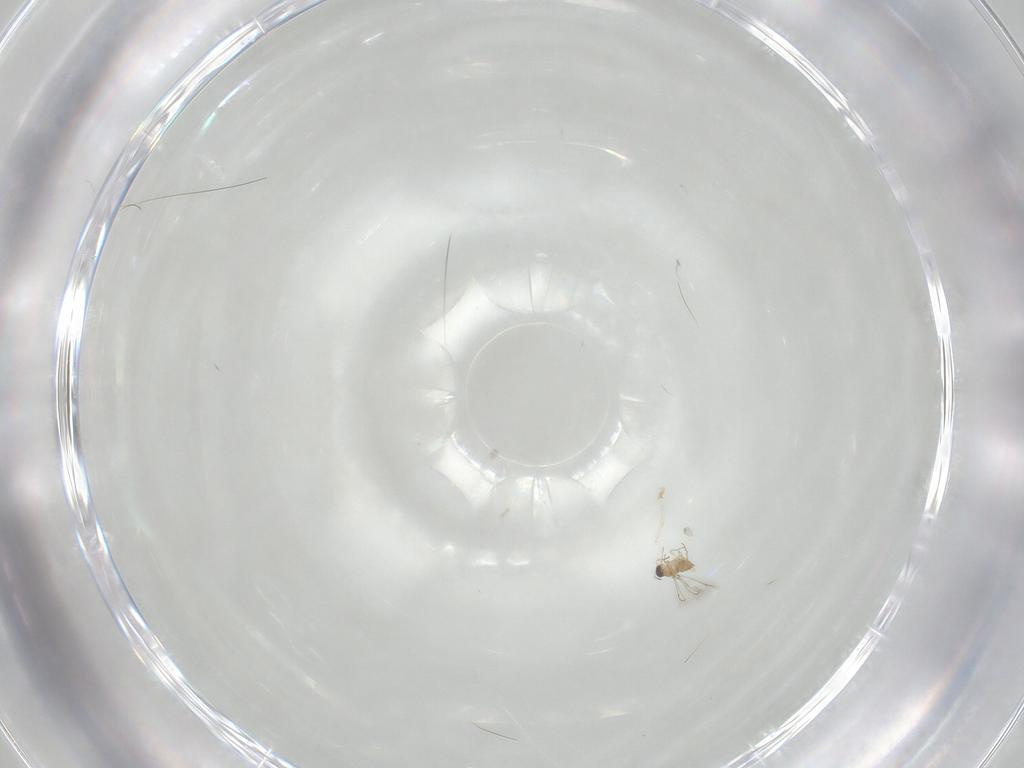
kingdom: Animalia
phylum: Arthropoda
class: Insecta
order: Hymenoptera
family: Mymaridae
